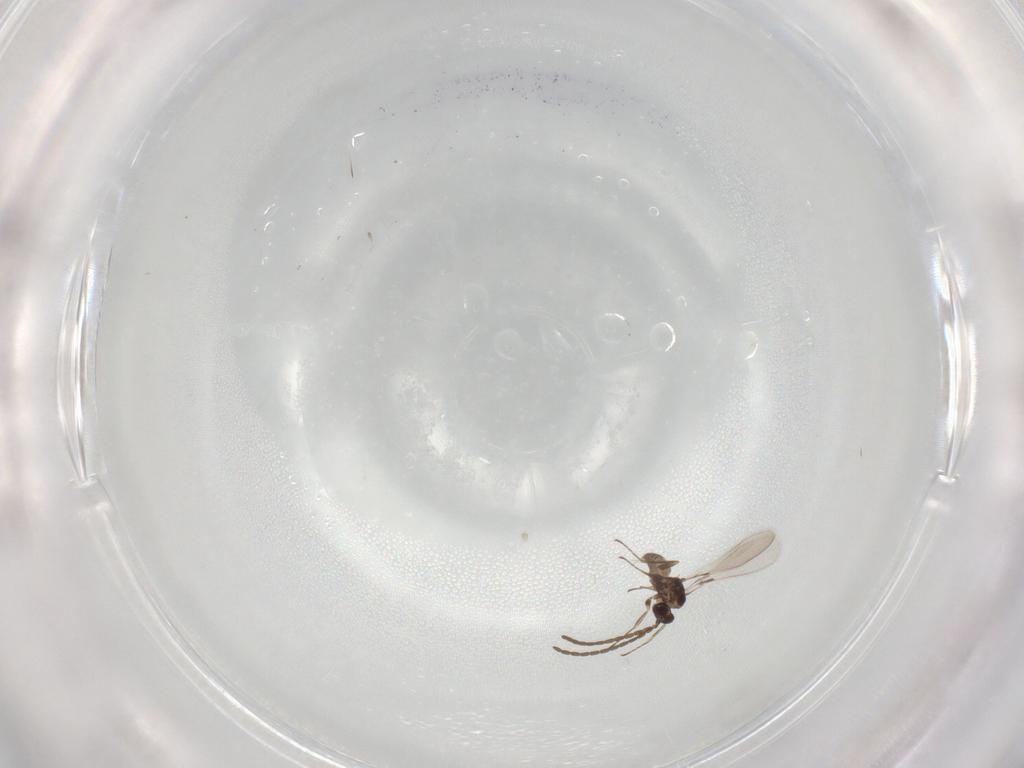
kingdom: Animalia
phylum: Arthropoda
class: Insecta
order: Hymenoptera
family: Mymaridae
